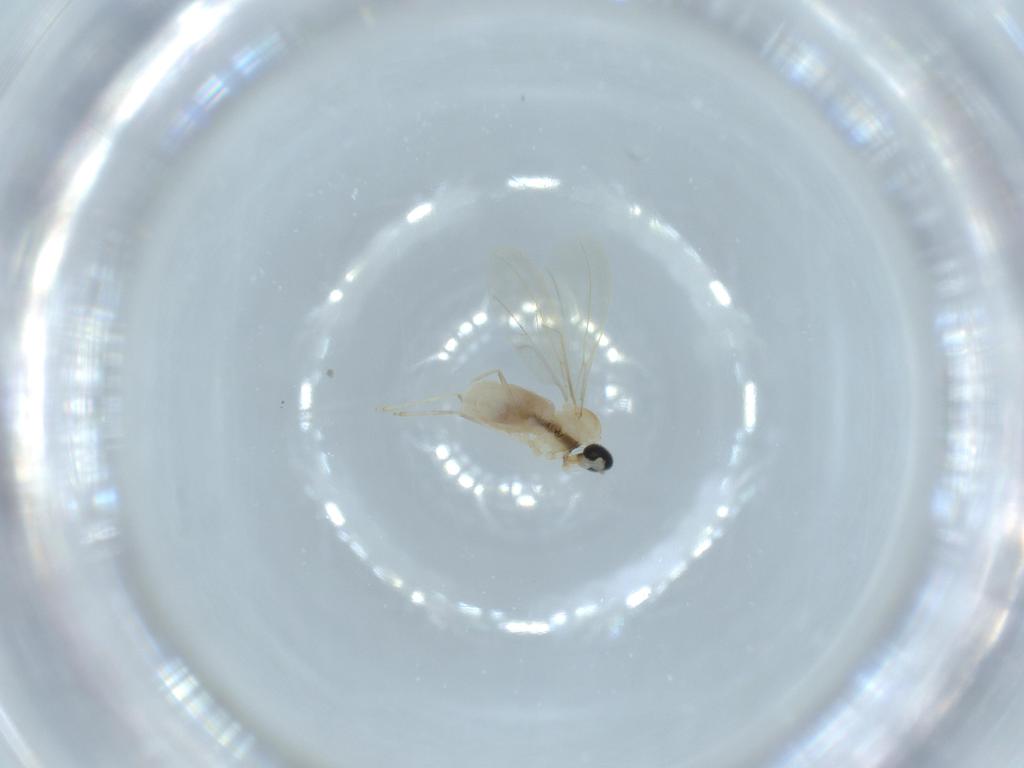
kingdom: Animalia
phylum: Arthropoda
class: Insecta
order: Diptera
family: Cecidomyiidae
